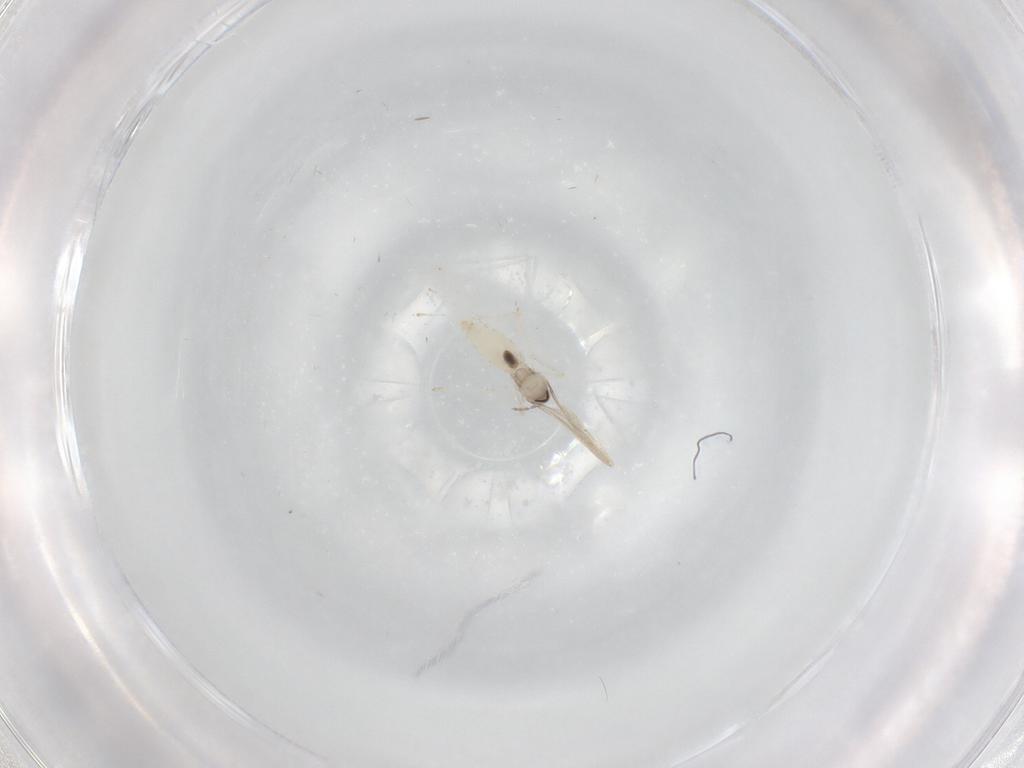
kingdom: Animalia
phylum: Arthropoda
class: Insecta
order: Diptera
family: Cecidomyiidae
